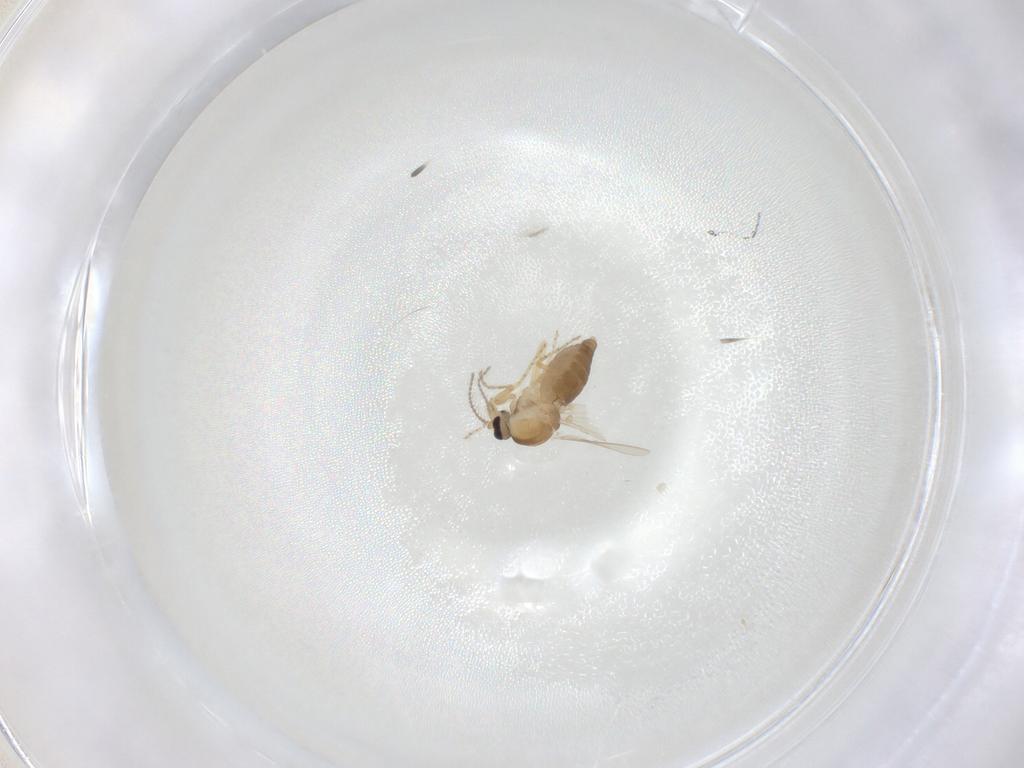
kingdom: Animalia
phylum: Arthropoda
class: Insecta
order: Diptera
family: Ceratopogonidae
